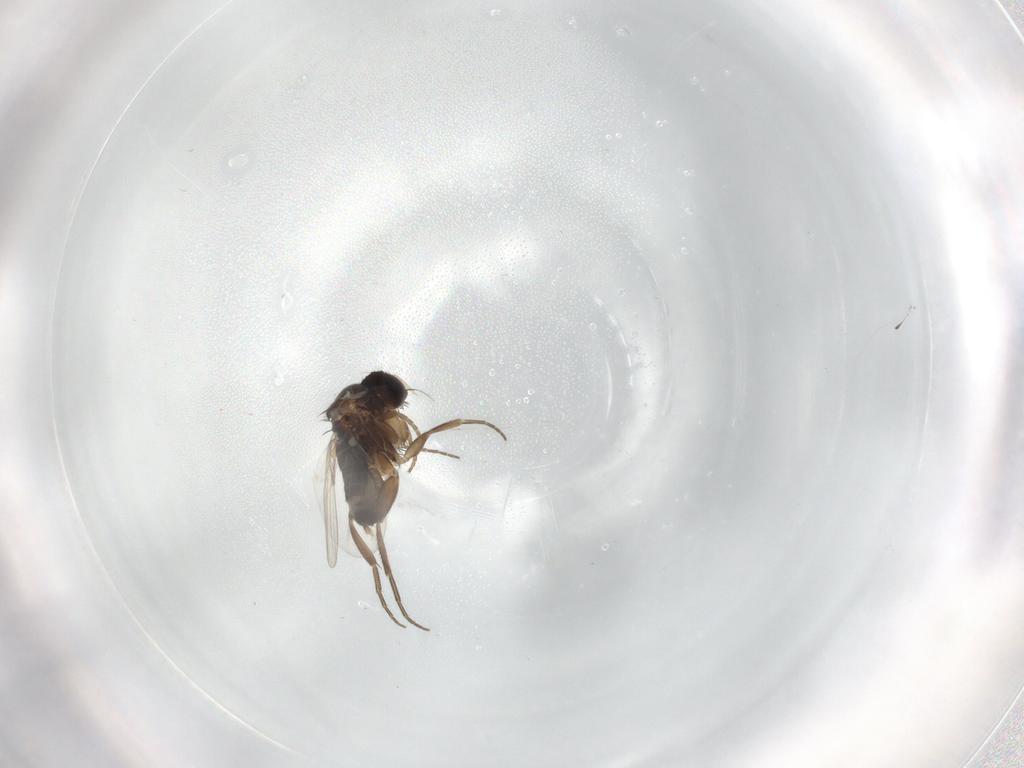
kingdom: Animalia
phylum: Arthropoda
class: Insecta
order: Diptera
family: Phoridae
